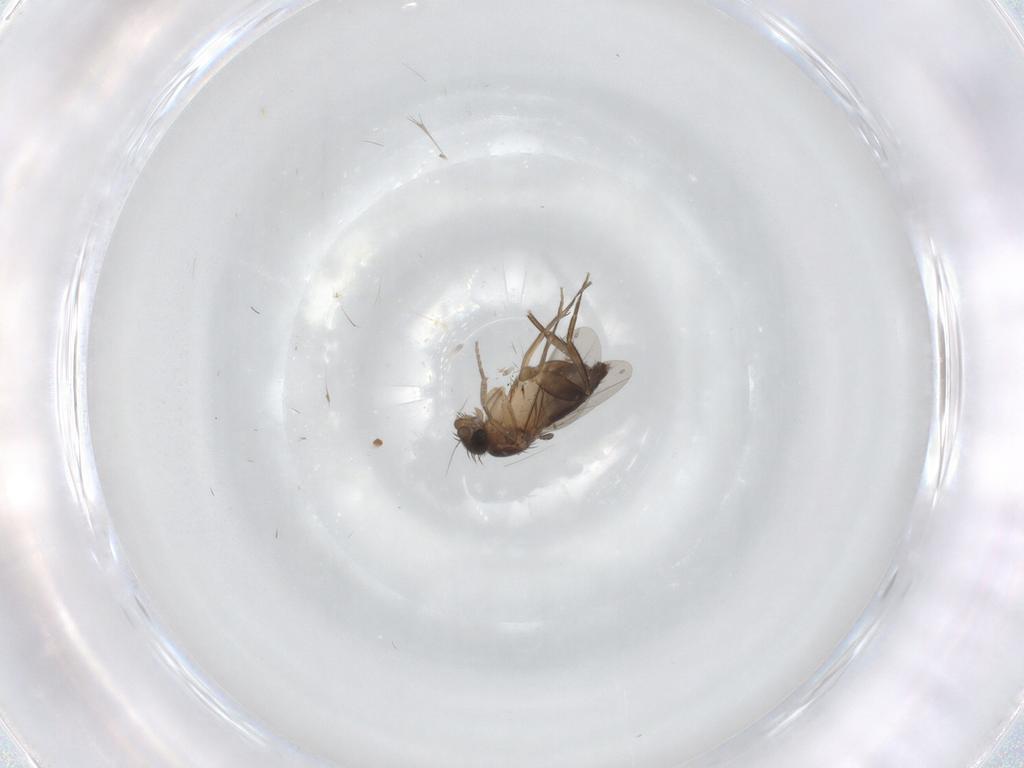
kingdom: Animalia
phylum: Arthropoda
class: Insecta
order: Diptera
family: Phoridae
